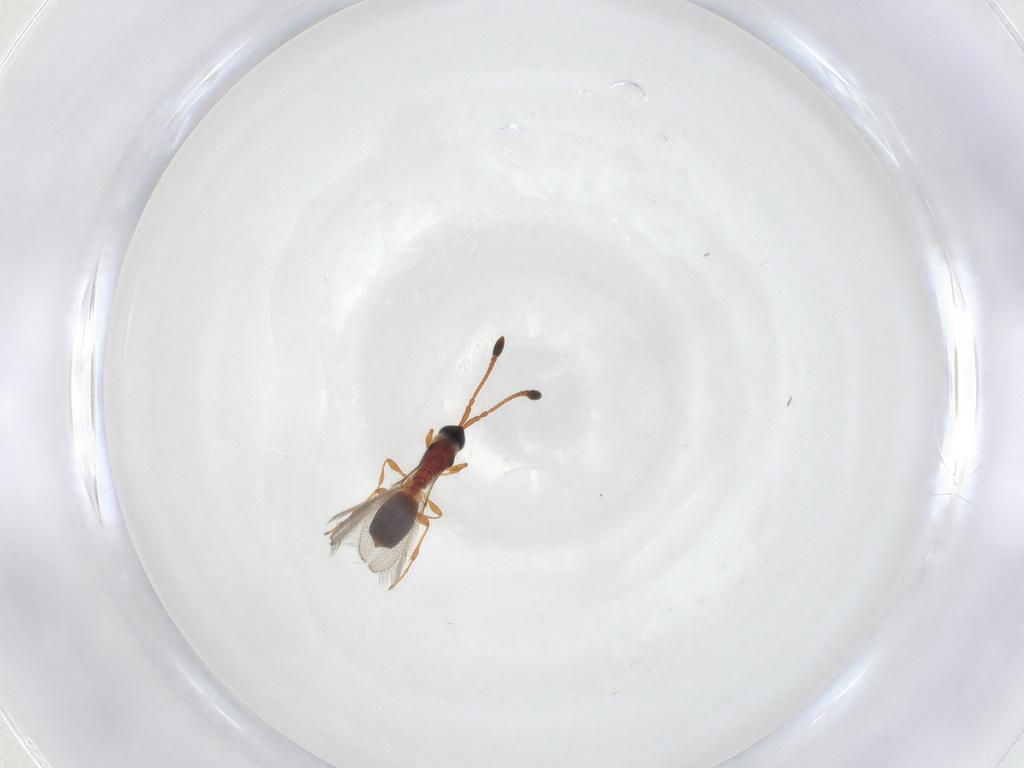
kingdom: Animalia
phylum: Arthropoda
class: Insecta
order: Hymenoptera
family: Diapriidae
